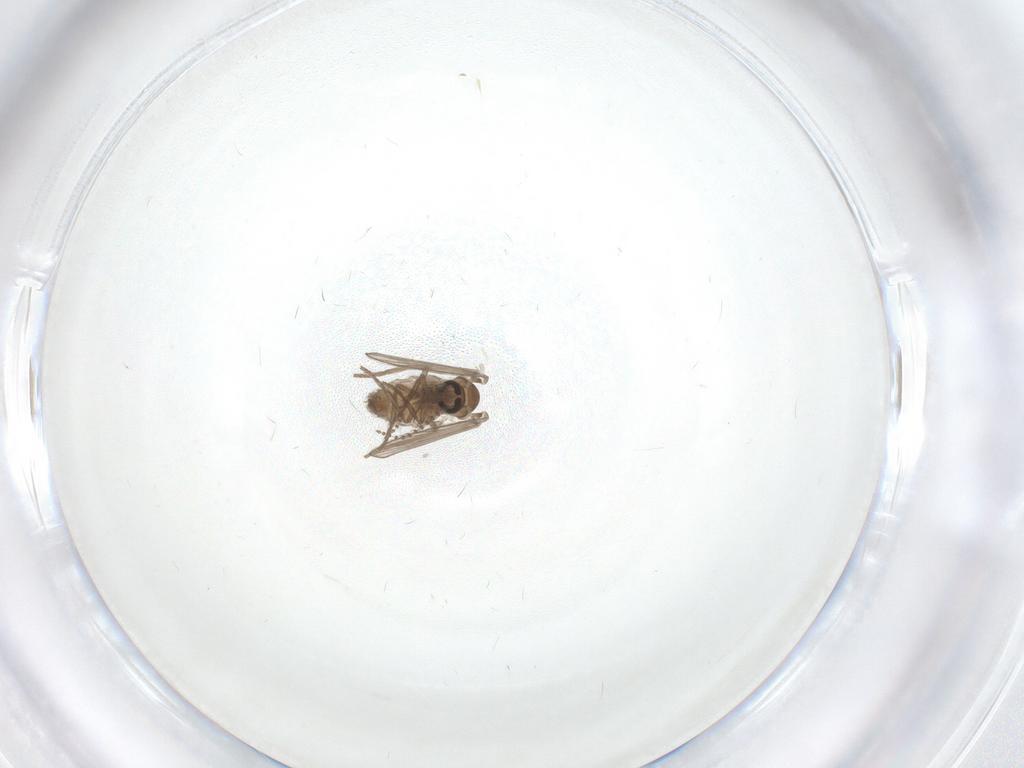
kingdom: Animalia
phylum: Arthropoda
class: Insecta
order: Diptera
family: Psychodidae
